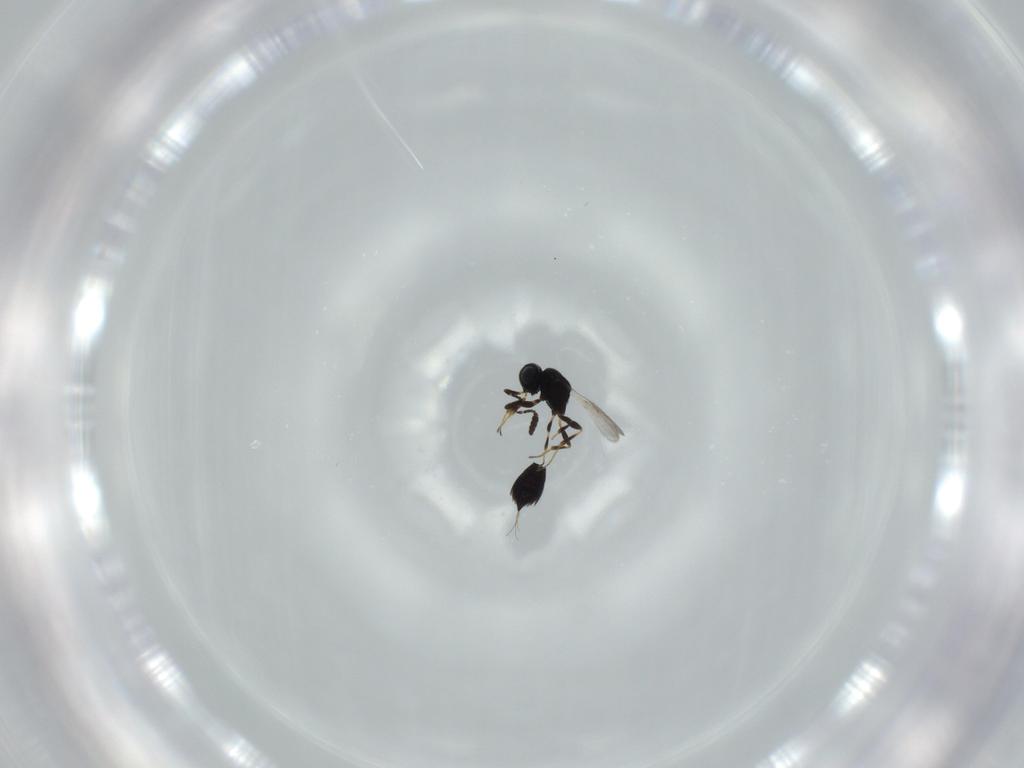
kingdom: Animalia
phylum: Arthropoda
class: Insecta
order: Hymenoptera
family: Scelionidae
